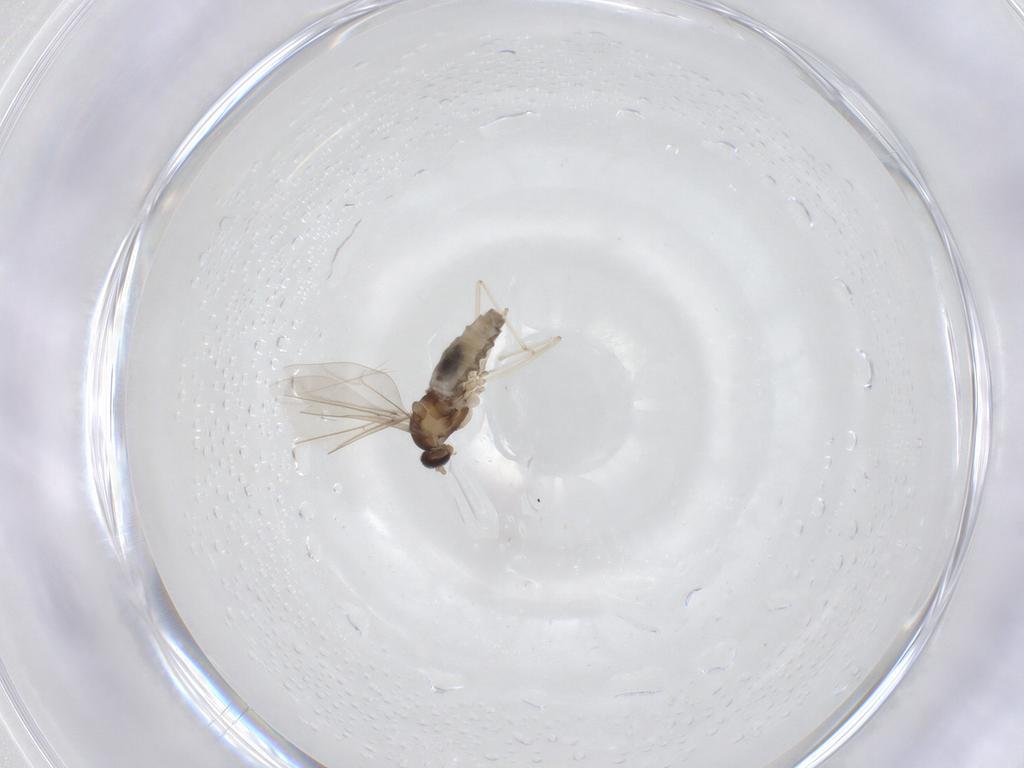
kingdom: Animalia
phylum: Arthropoda
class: Insecta
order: Diptera
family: Cecidomyiidae
